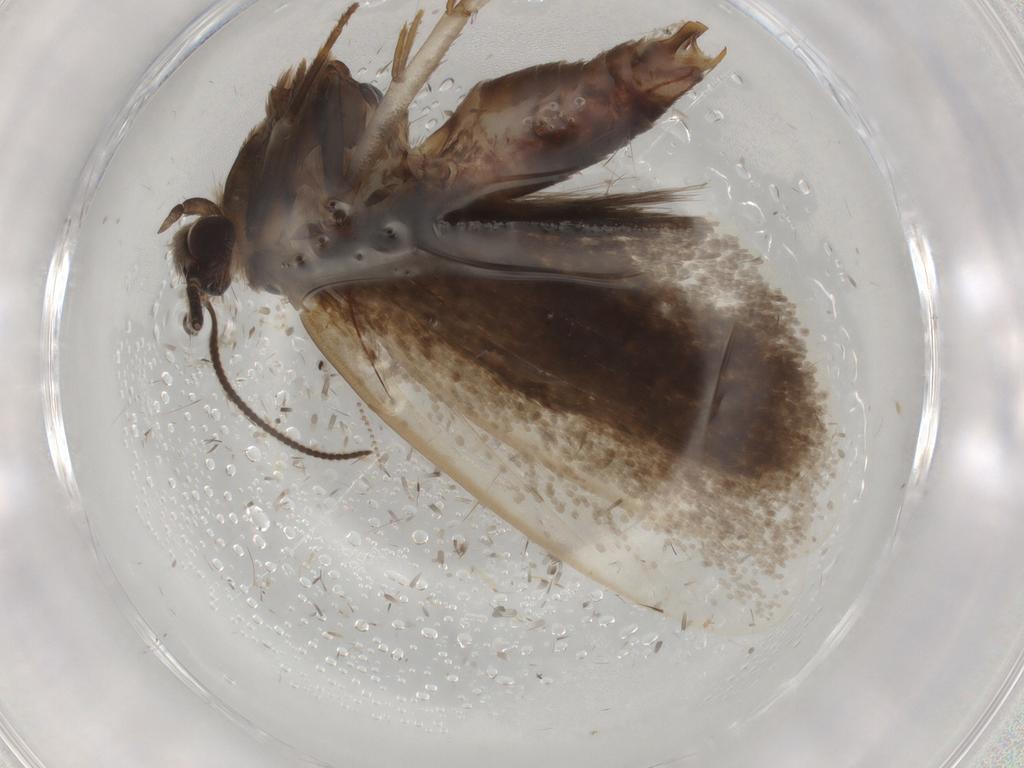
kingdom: Animalia
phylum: Arthropoda
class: Insecta
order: Lepidoptera
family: Tineidae
